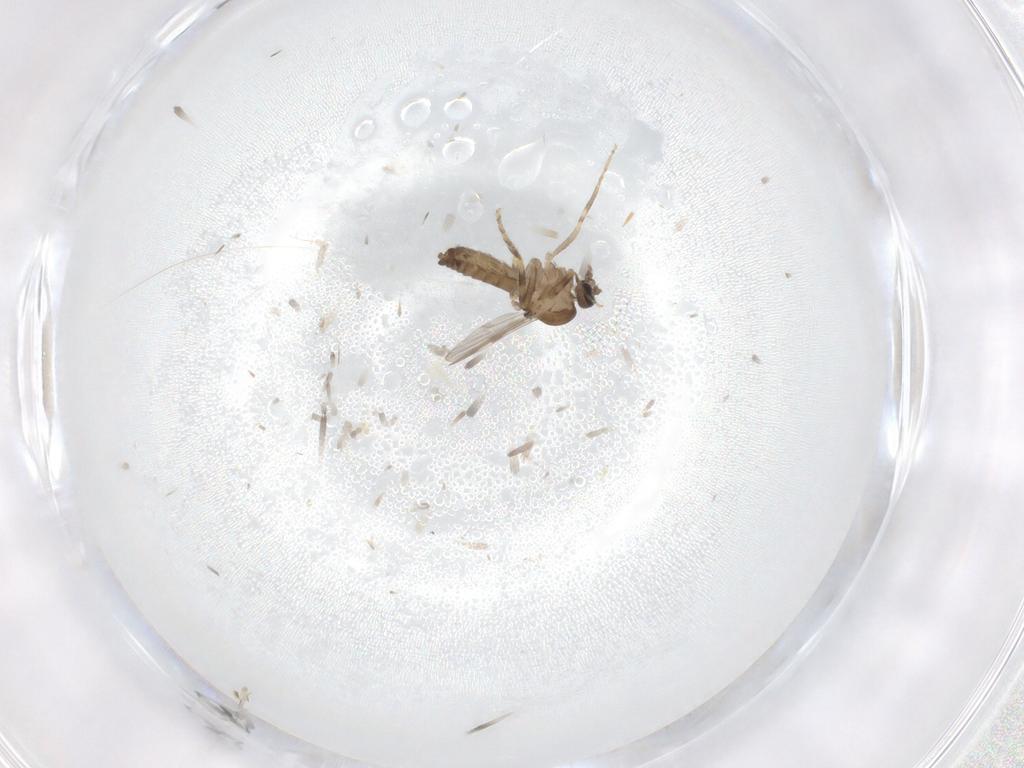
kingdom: Animalia
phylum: Arthropoda
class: Insecta
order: Diptera
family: Ceratopogonidae
